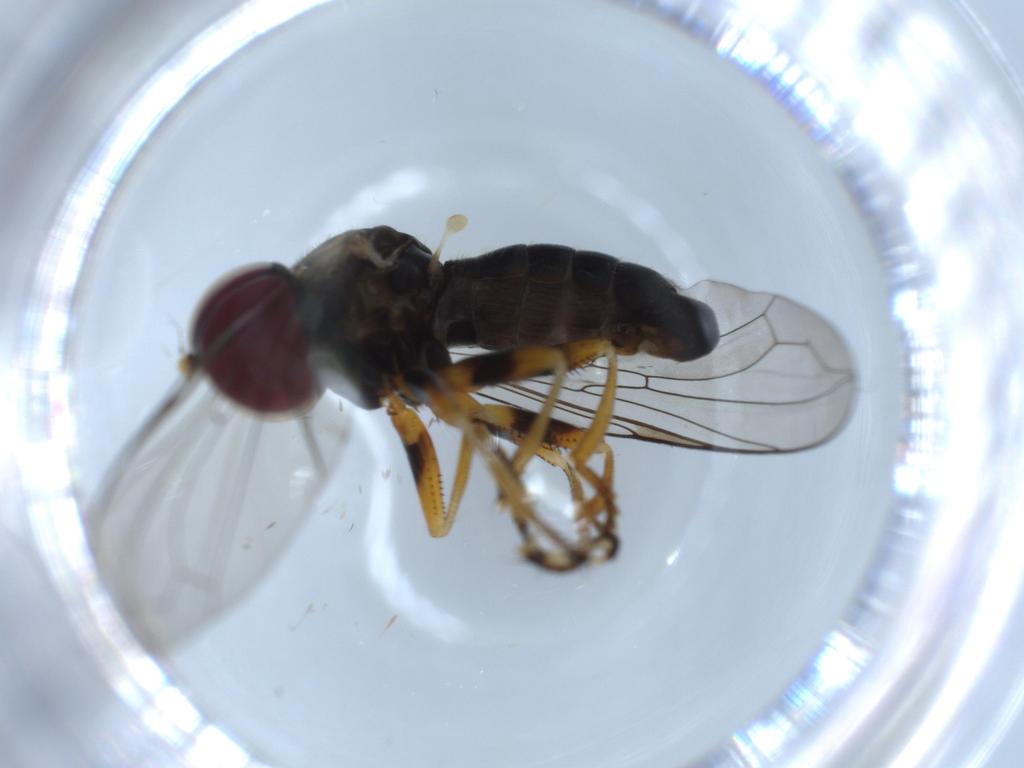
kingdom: Animalia
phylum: Arthropoda
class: Insecta
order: Diptera
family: Pipunculidae
